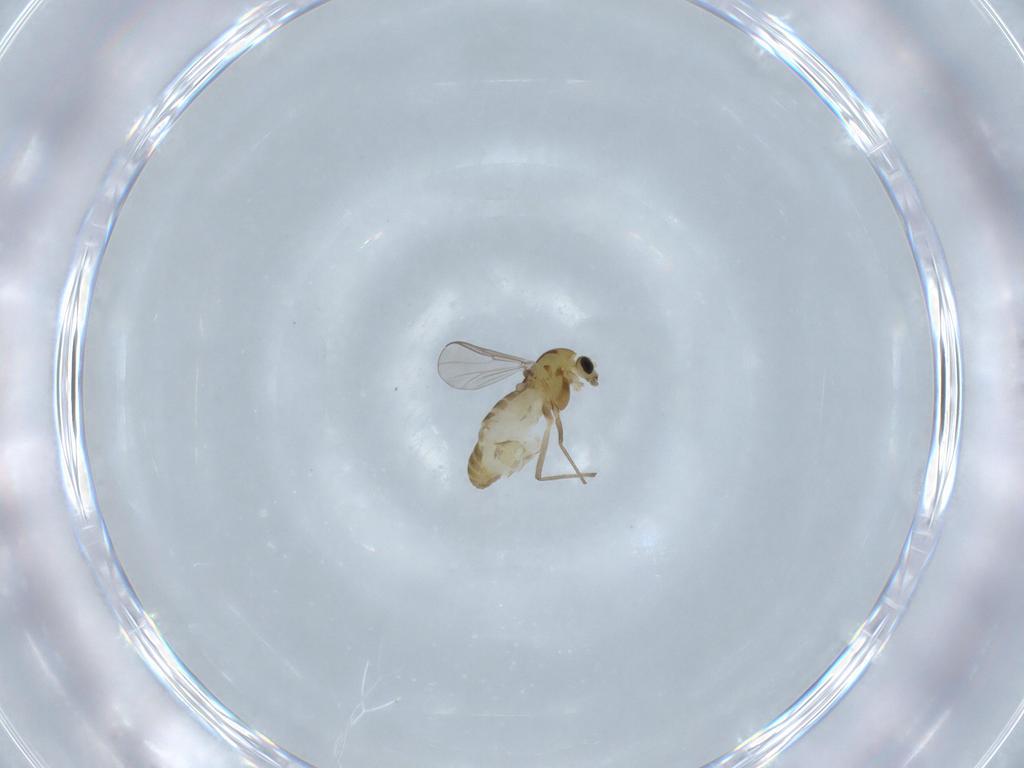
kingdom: Animalia
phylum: Arthropoda
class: Insecta
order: Diptera
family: Chironomidae
